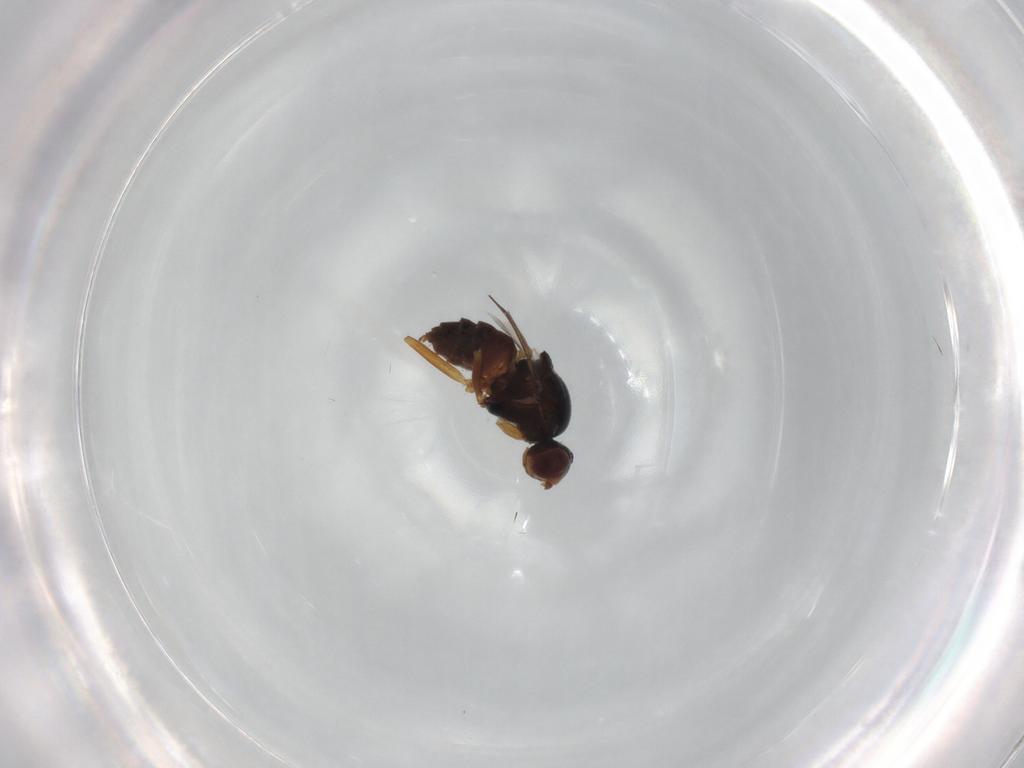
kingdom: Animalia
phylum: Arthropoda
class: Insecta
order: Diptera
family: Chloropidae
